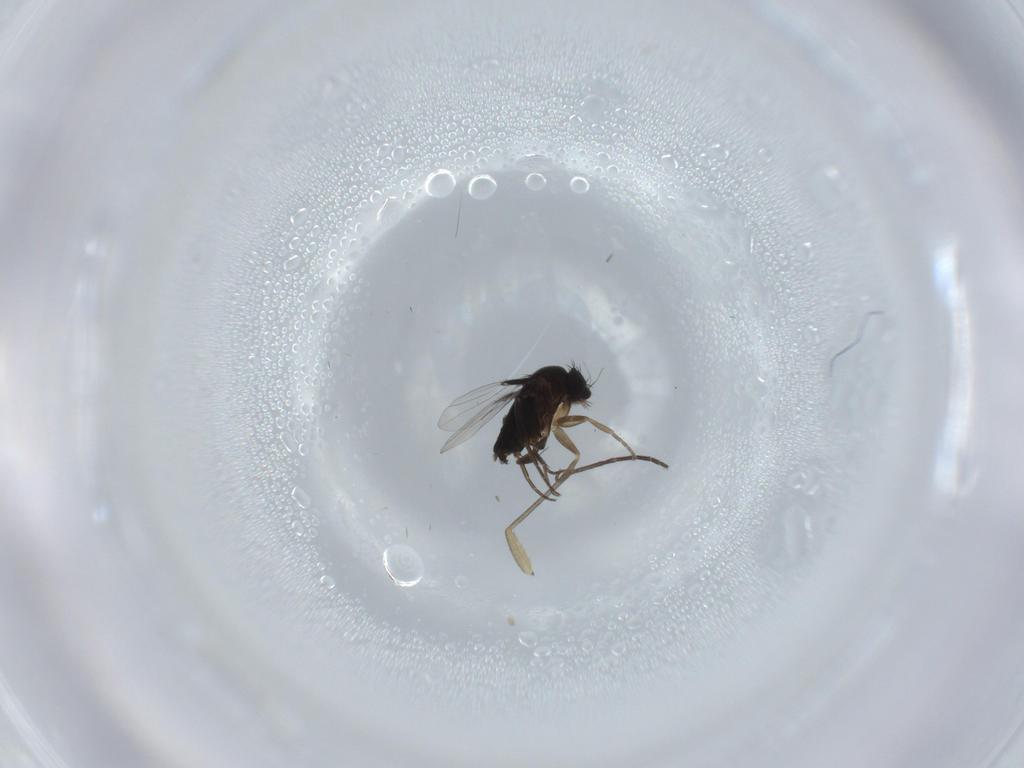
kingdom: Animalia
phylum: Arthropoda
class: Insecta
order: Diptera
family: Phoridae
